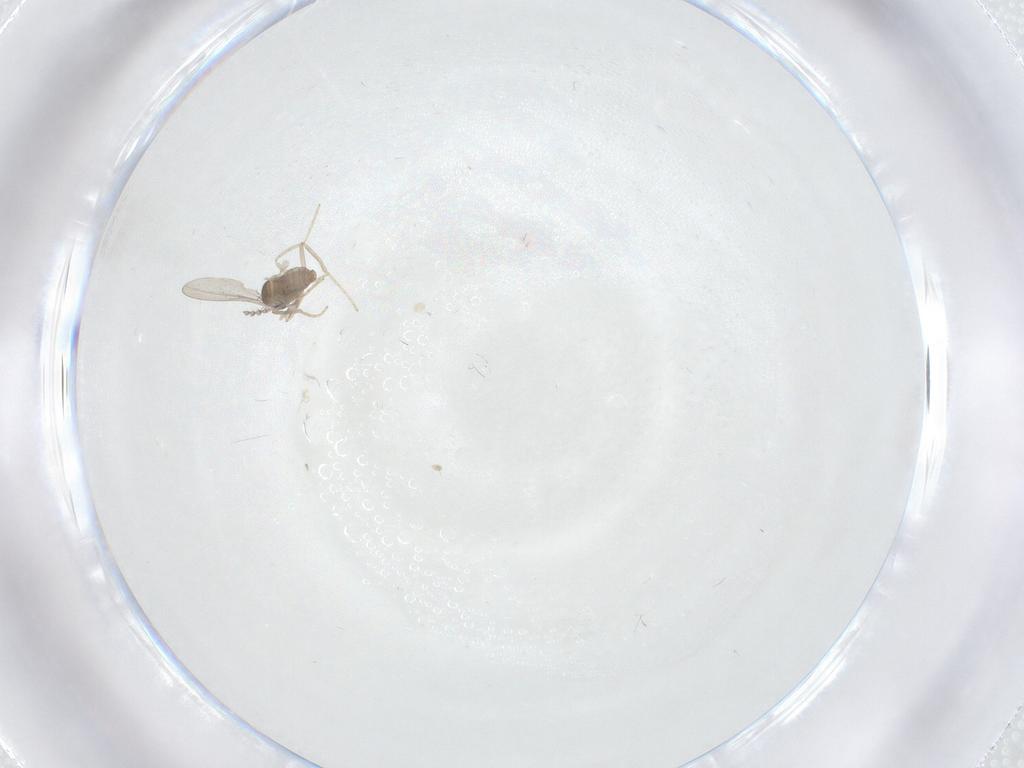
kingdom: Animalia
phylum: Arthropoda
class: Insecta
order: Diptera
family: Cecidomyiidae
